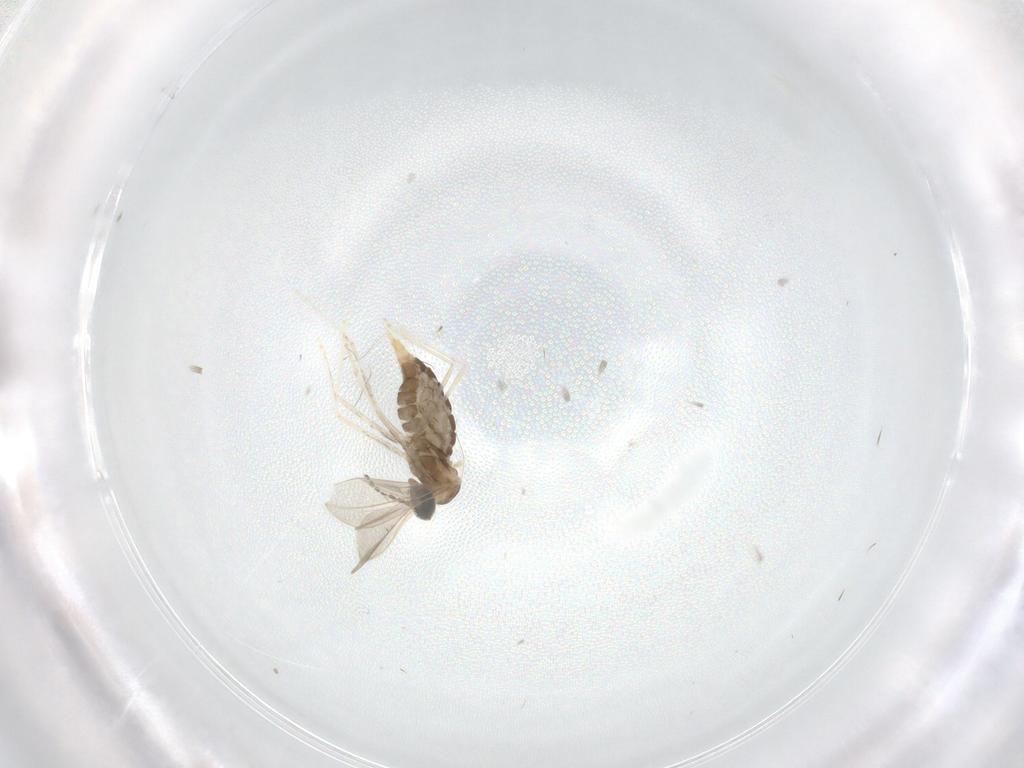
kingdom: Animalia
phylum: Arthropoda
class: Insecta
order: Diptera
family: Cecidomyiidae
